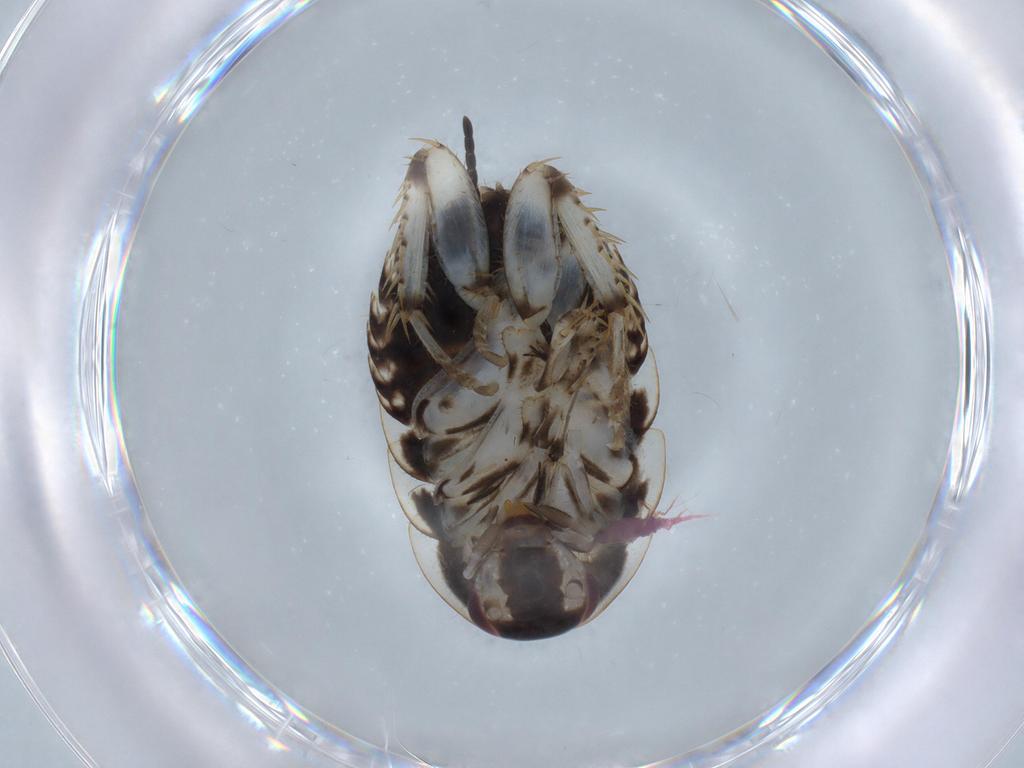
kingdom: Animalia
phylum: Arthropoda
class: Insecta
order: Blattodea
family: Ectobiidae
